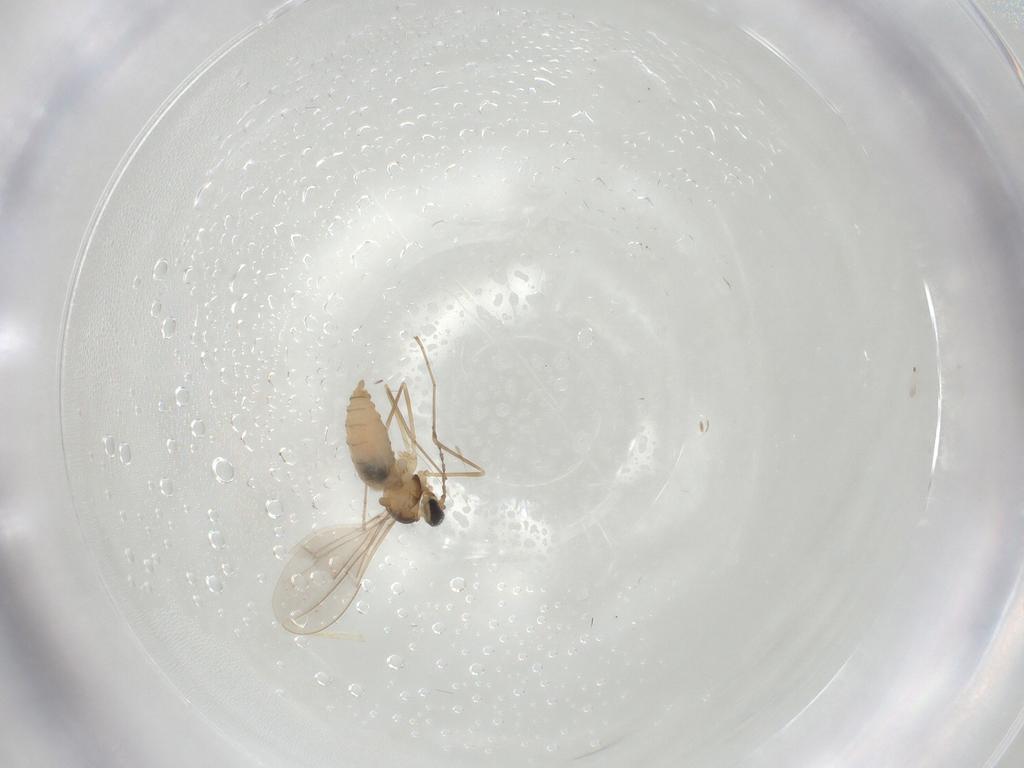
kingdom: Animalia
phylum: Arthropoda
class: Insecta
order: Diptera
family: Cecidomyiidae
